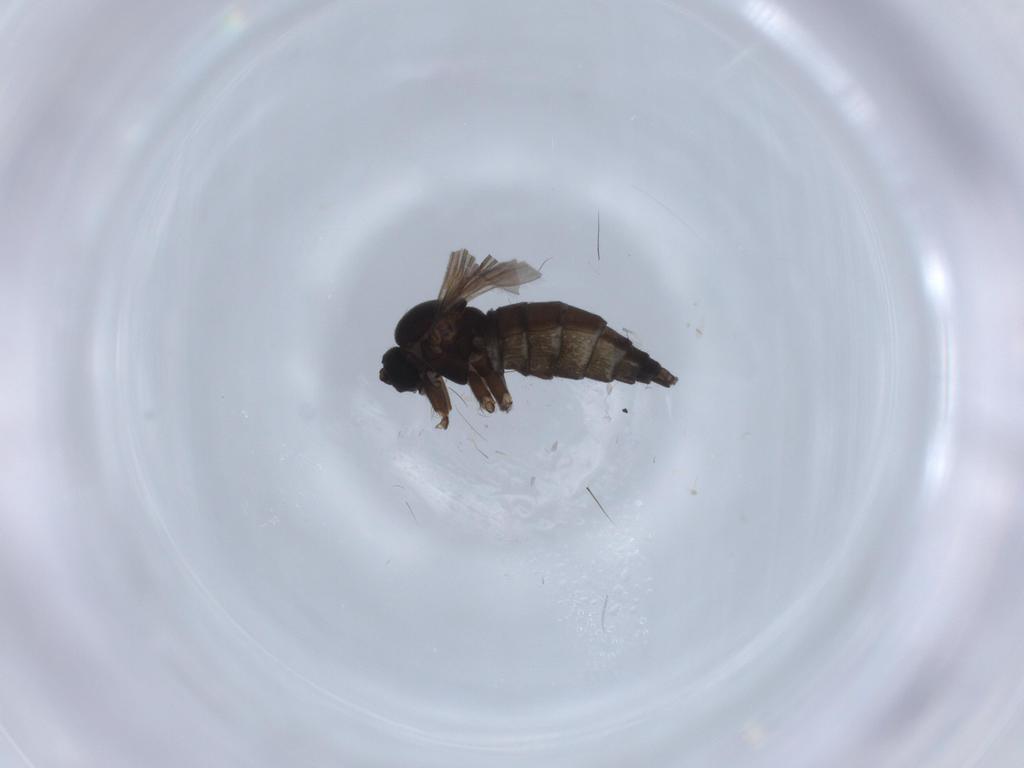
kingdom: Animalia
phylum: Arthropoda
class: Insecta
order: Diptera
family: Sciaridae
